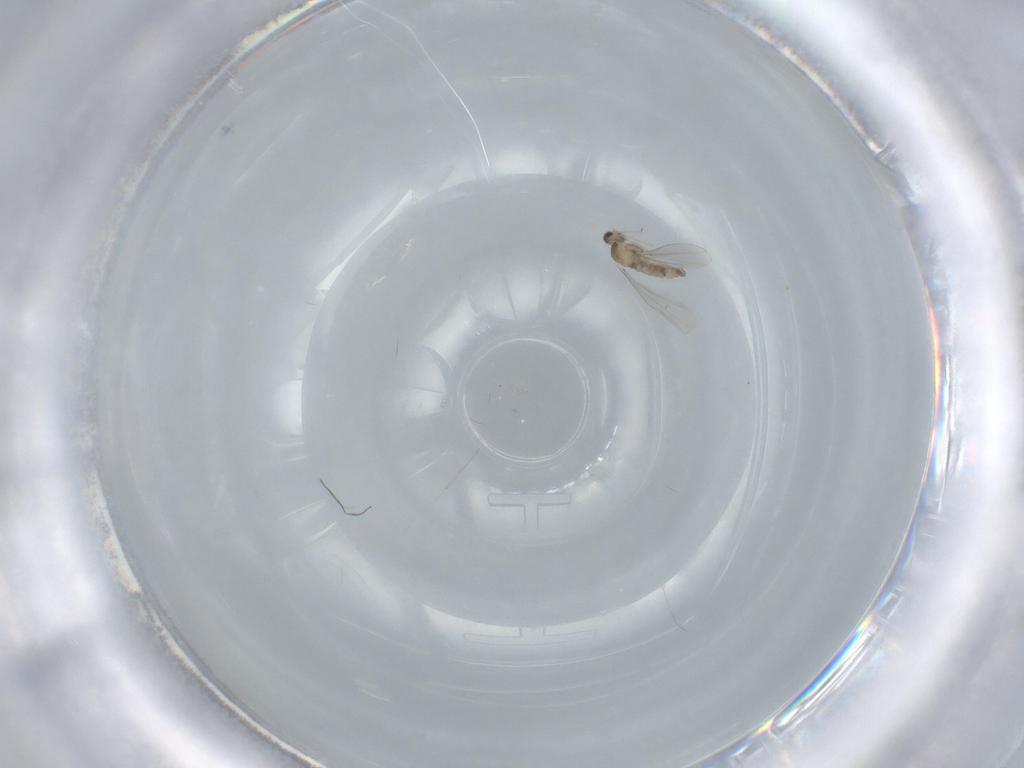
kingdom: Animalia
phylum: Arthropoda
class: Insecta
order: Diptera
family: Cecidomyiidae
